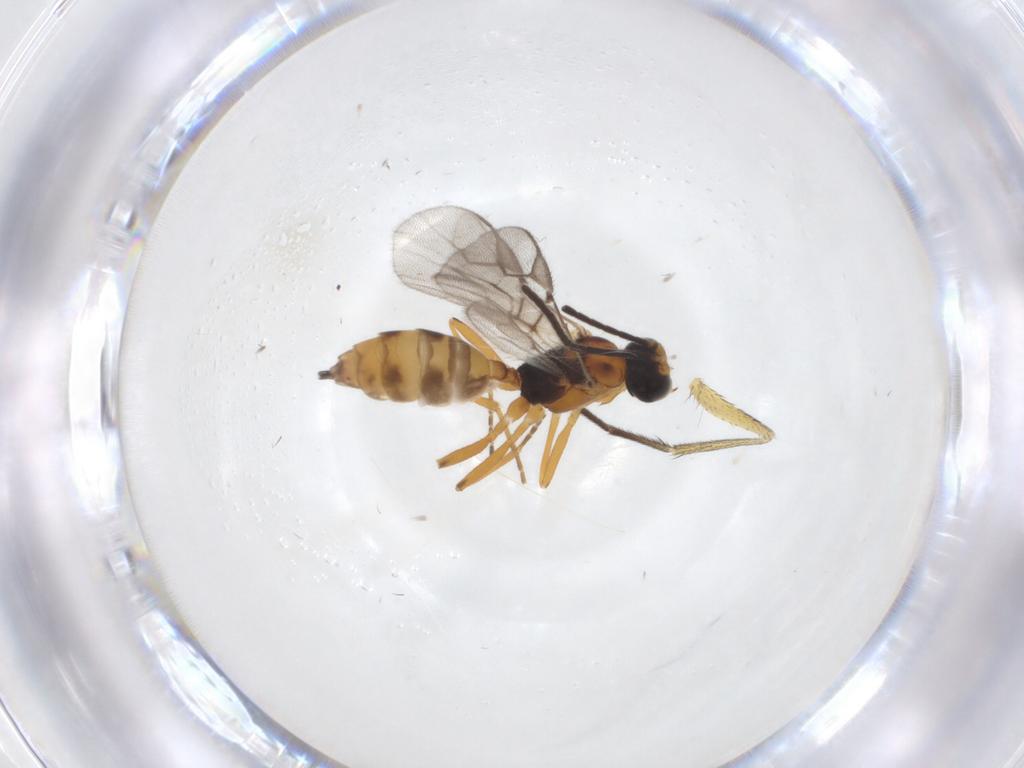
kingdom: Animalia
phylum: Arthropoda
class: Insecta
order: Hymenoptera
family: Braconidae
